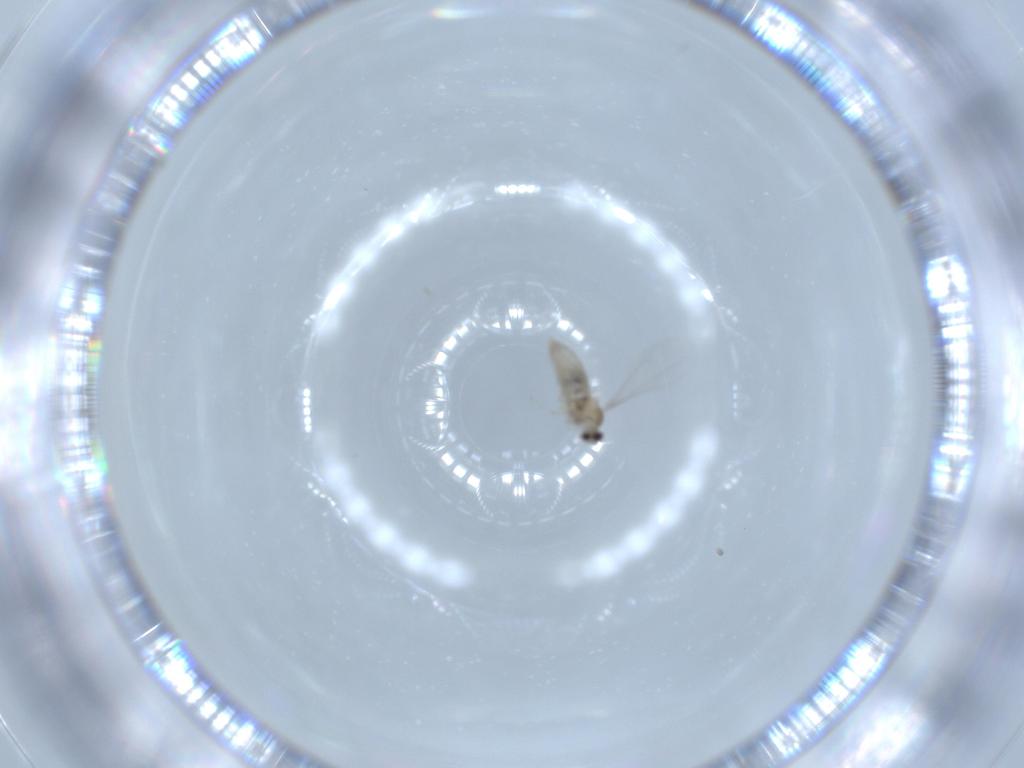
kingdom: Animalia
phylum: Arthropoda
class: Insecta
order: Diptera
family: Cecidomyiidae
